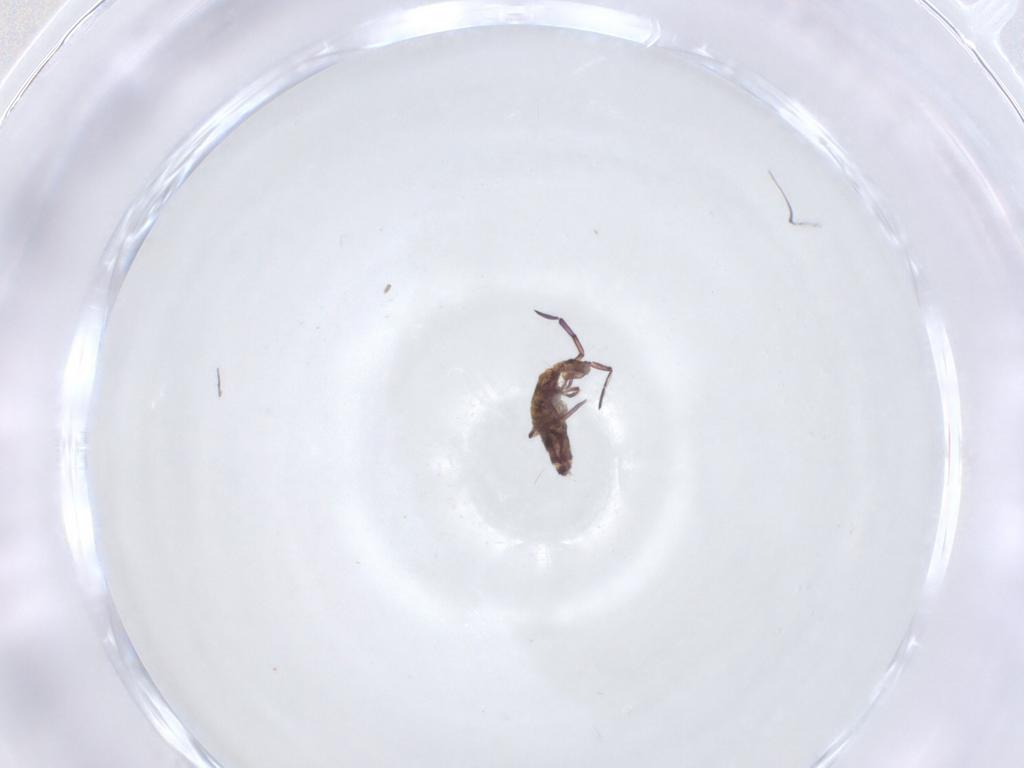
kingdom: Animalia
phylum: Arthropoda
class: Collembola
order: Entomobryomorpha
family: Entomobryidae
